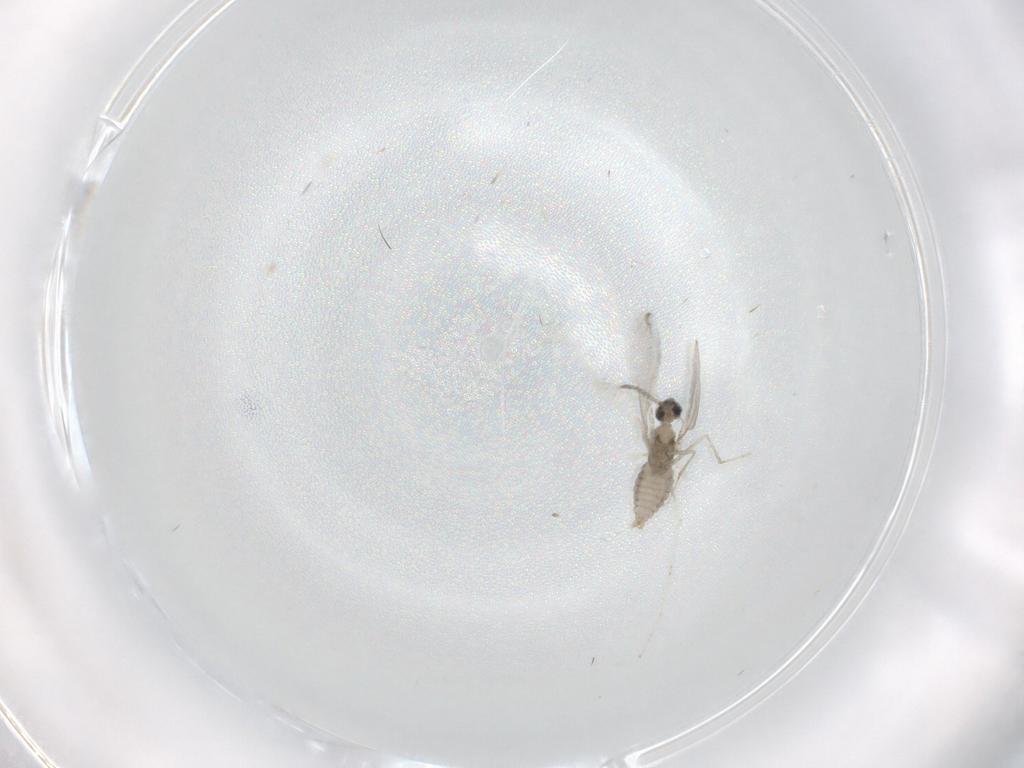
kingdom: Animalia
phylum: Arthropoda
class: Insecta
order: Diptera
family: Cecidomyiidae
